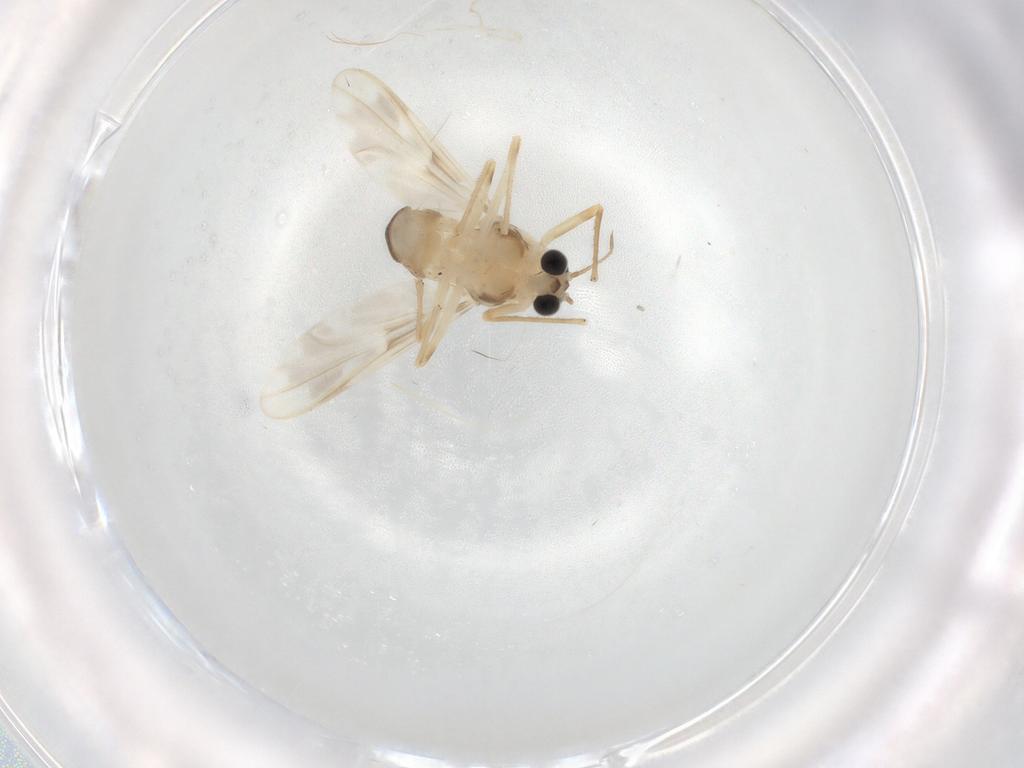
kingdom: Animalia
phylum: Arthropoda
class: Insecta
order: Diptera
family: Chironomidae
